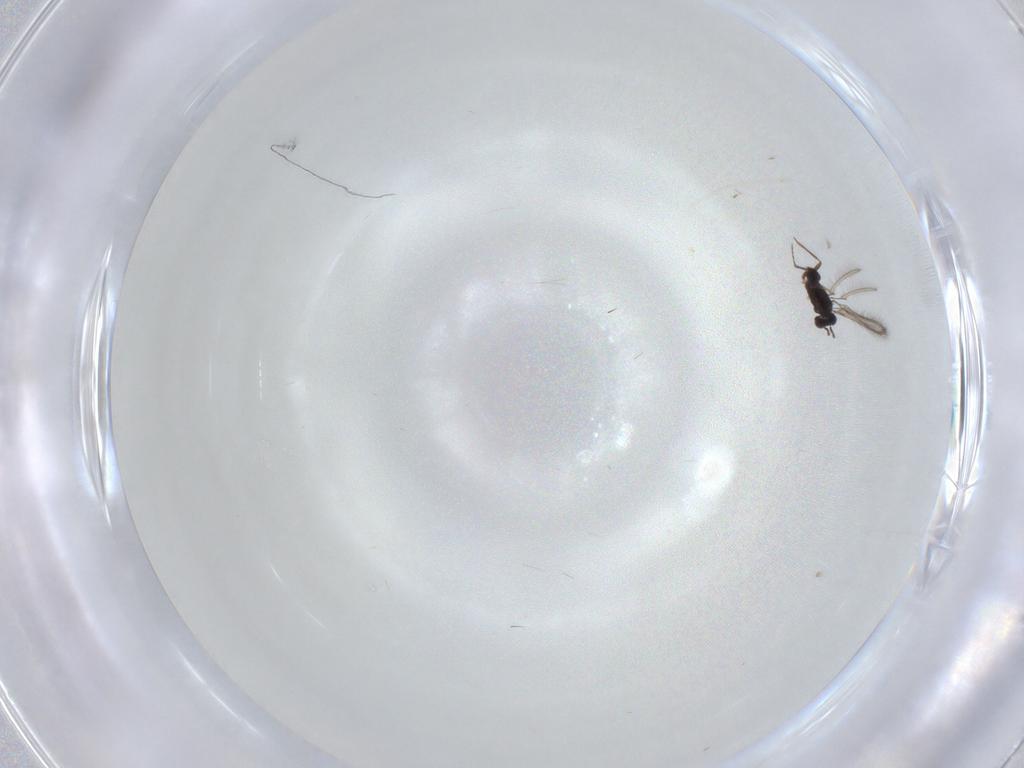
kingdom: Animalia
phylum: Arthropoda
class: Insecta
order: Hymenoptera
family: Mymaridae
